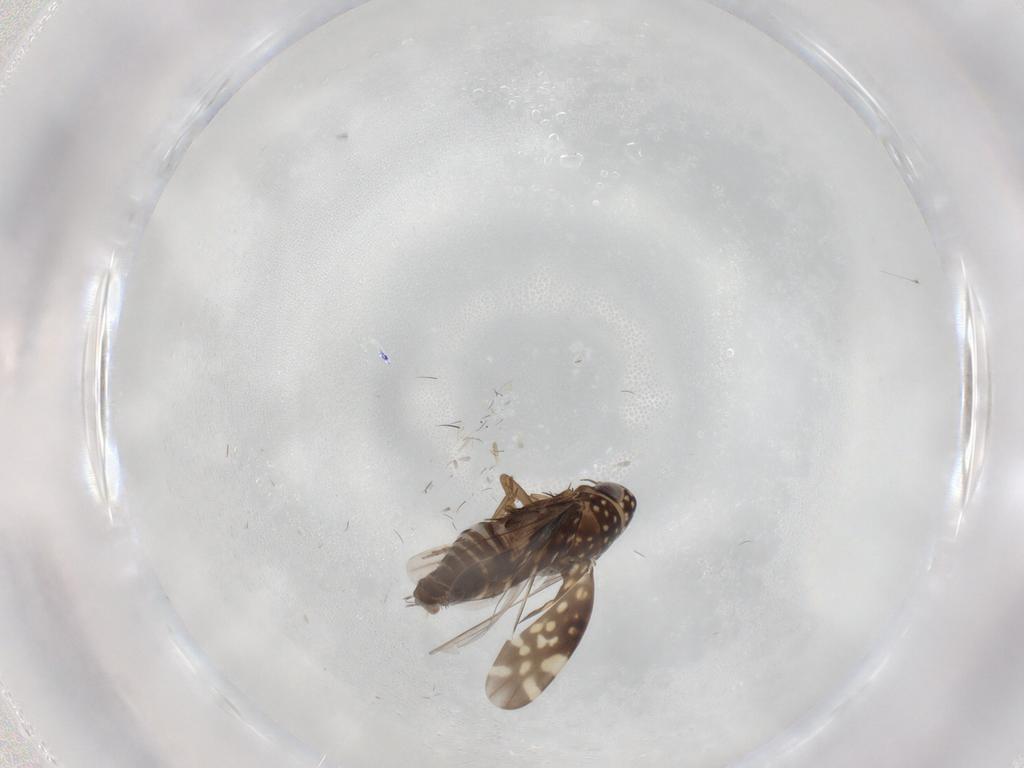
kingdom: Animalia
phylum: Arthropoda
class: Insecta
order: Hemiptera
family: Cicadellidae
